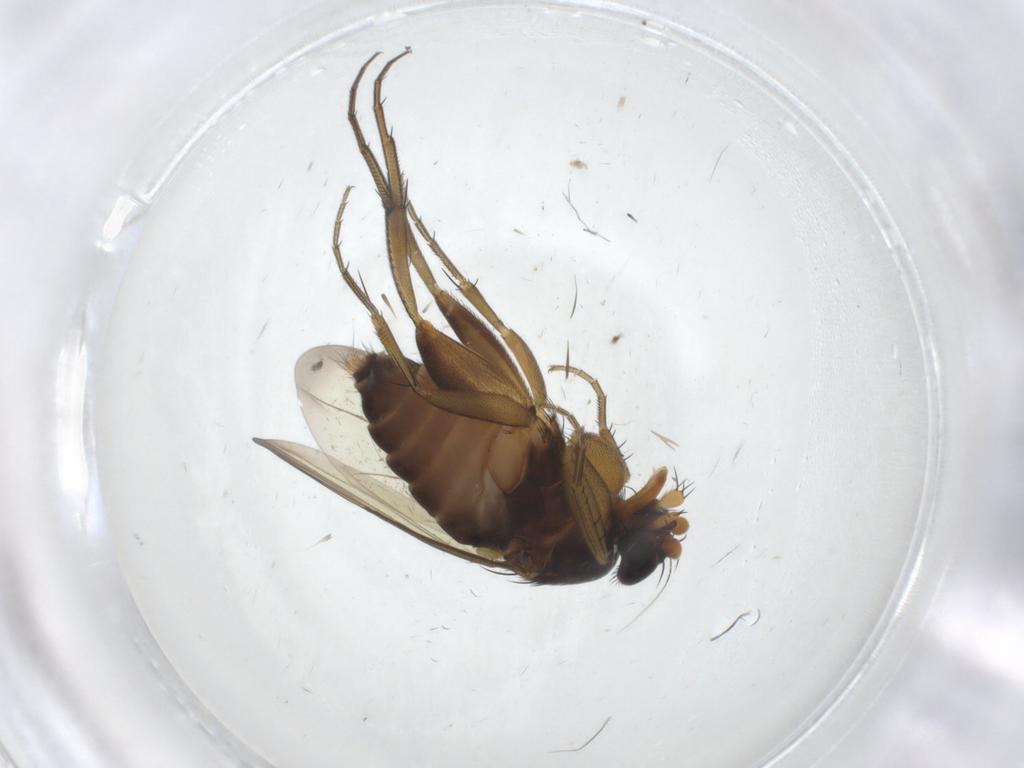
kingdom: Animalia
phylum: Arthropoda
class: Insecta
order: Diptera
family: Phoridae
